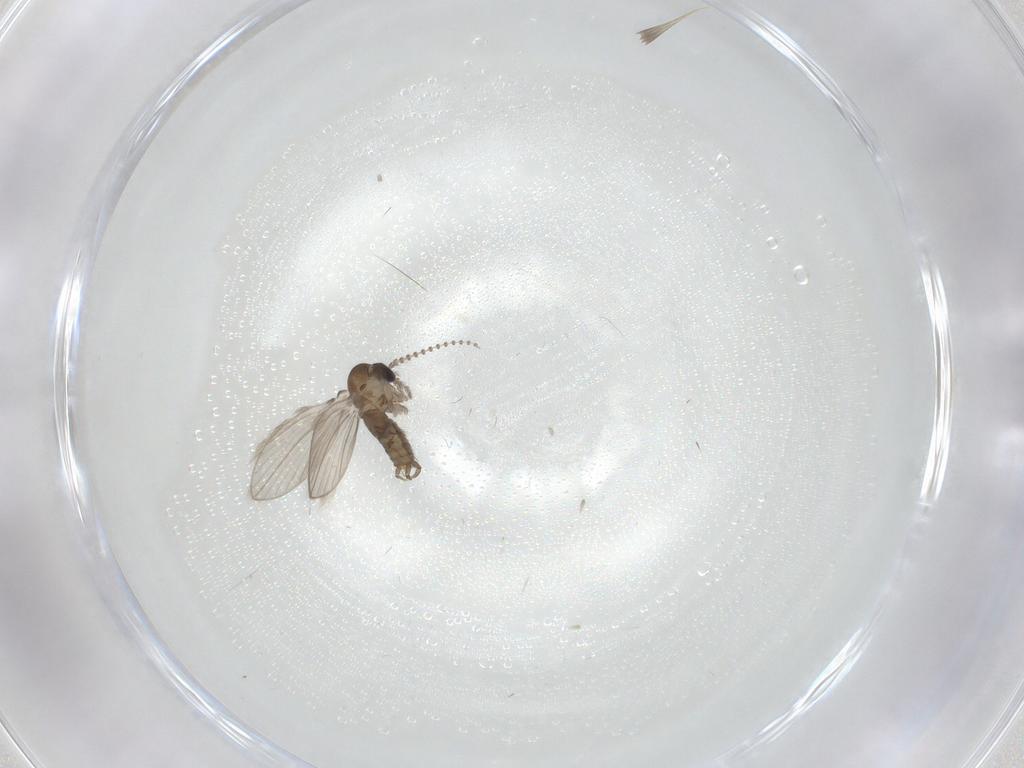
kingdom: Animalia
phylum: Arthropoda
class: Insecta
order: Diptera
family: Psychodidae
